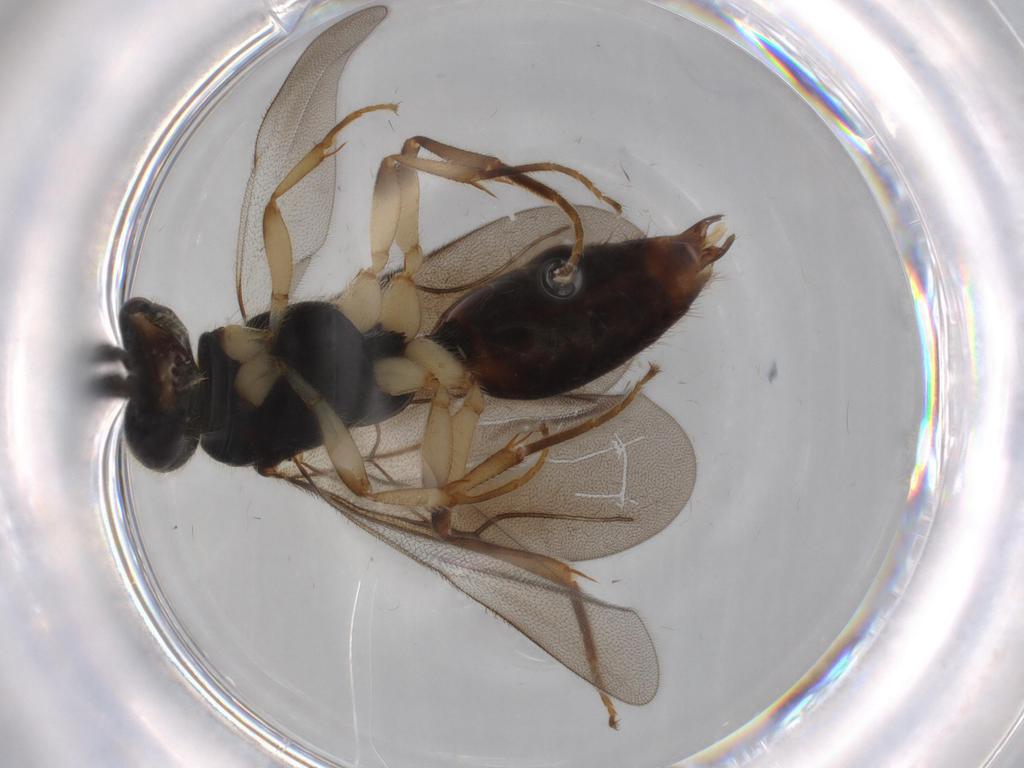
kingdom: Animalia
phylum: Arthropoda
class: Insecta
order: Hymenoptera
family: Bethylidae
